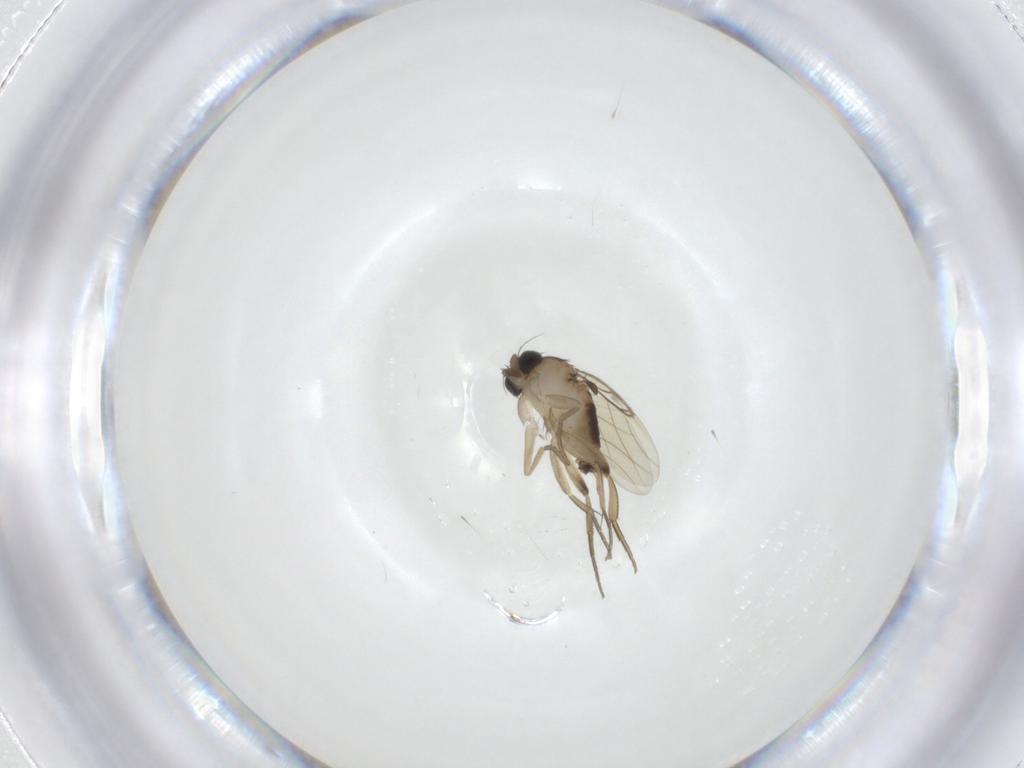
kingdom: Animalia
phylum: Arthropoda
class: Insecta
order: Diptera
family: Phoridae
